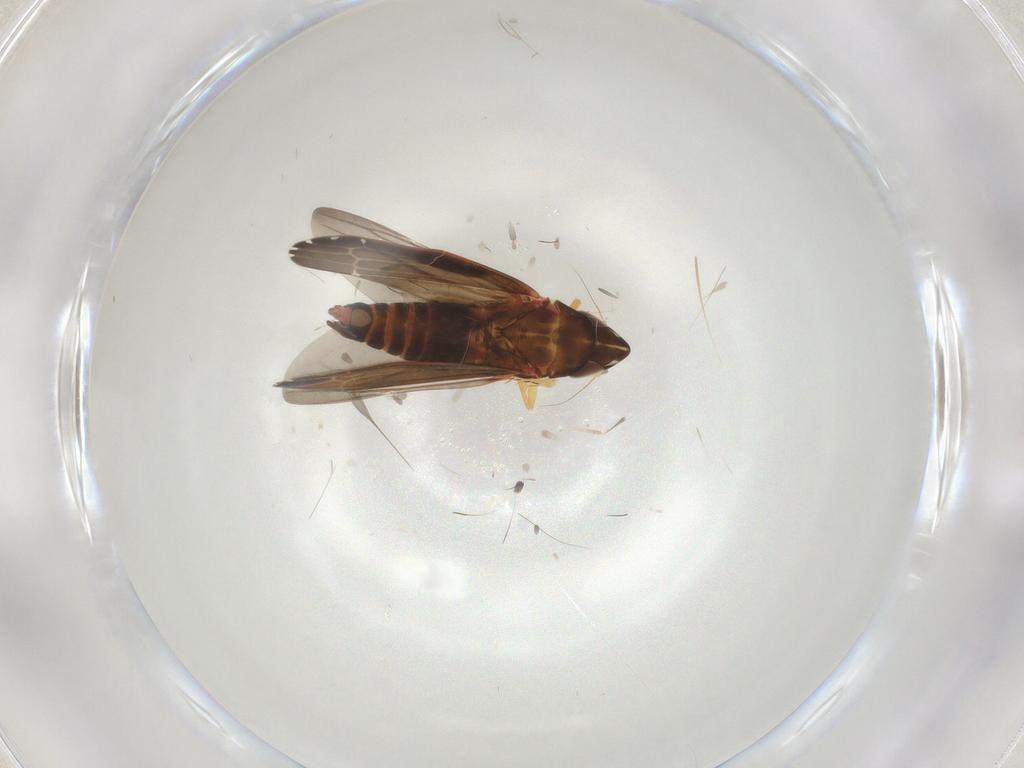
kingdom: Animalia
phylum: Arthropoda
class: Insecta
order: Hemiptera
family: Cicadellidae
